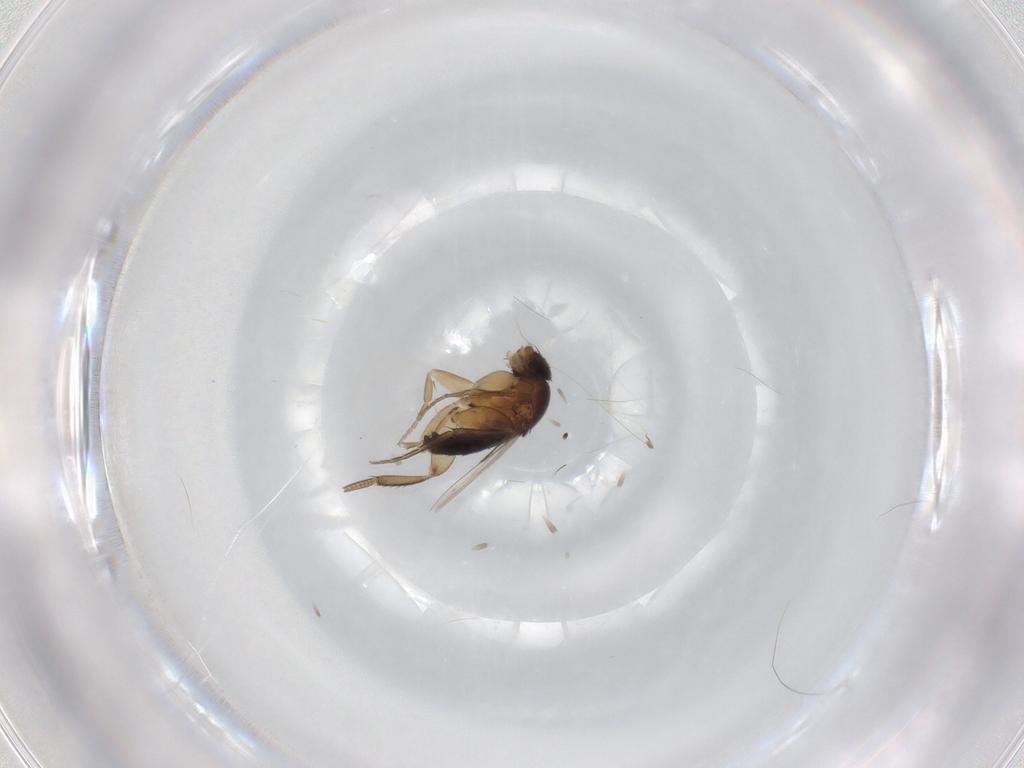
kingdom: Animalia
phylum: Arthropoda
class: Insecta
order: Diptera
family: Phoridae
